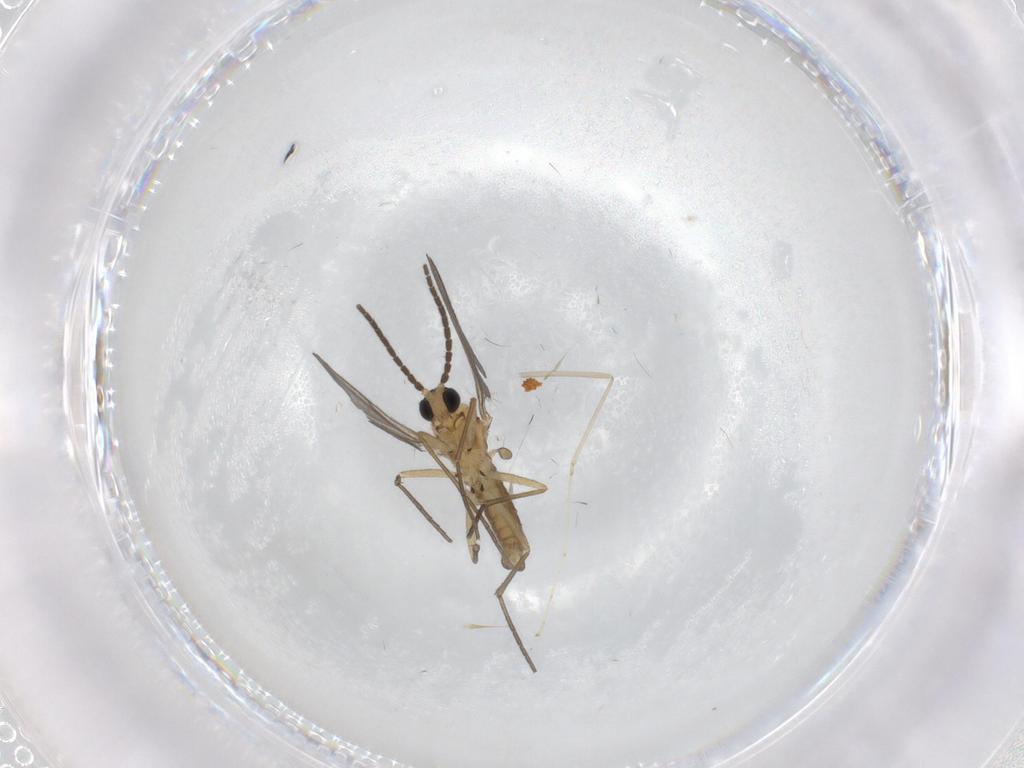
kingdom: Animalia
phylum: Arthropoda
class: Insecta
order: Diptera
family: Sciaridae
